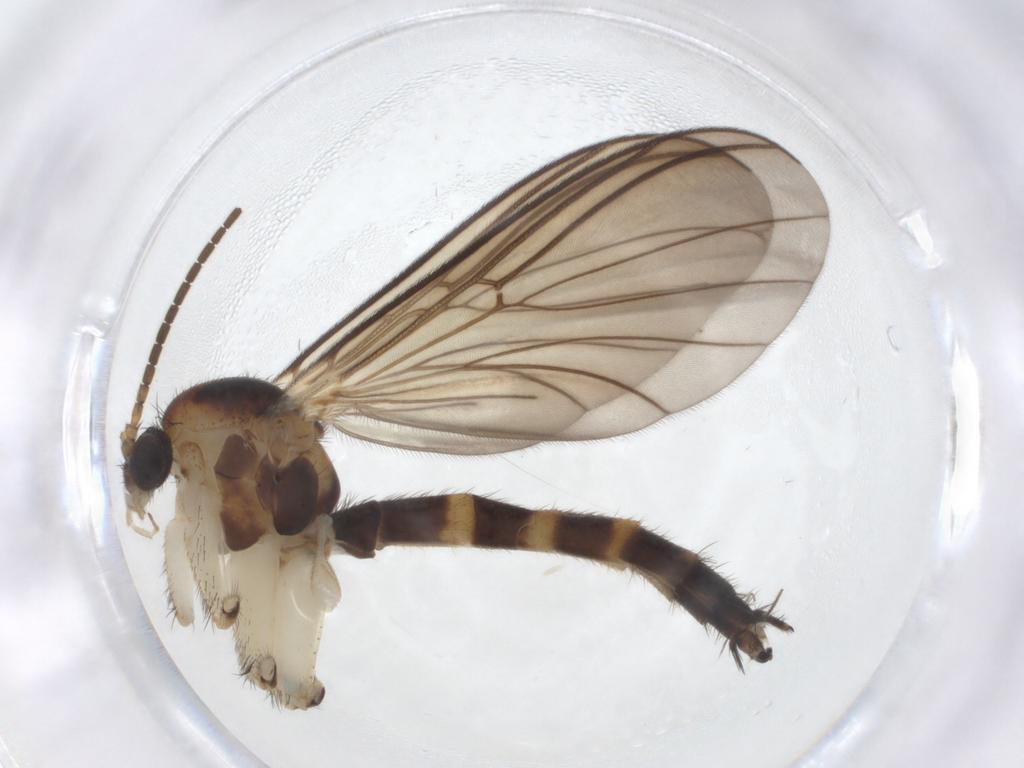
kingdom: Animalia
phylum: Arthropoda
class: Insecta
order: Diptera
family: Mycetophilidae
